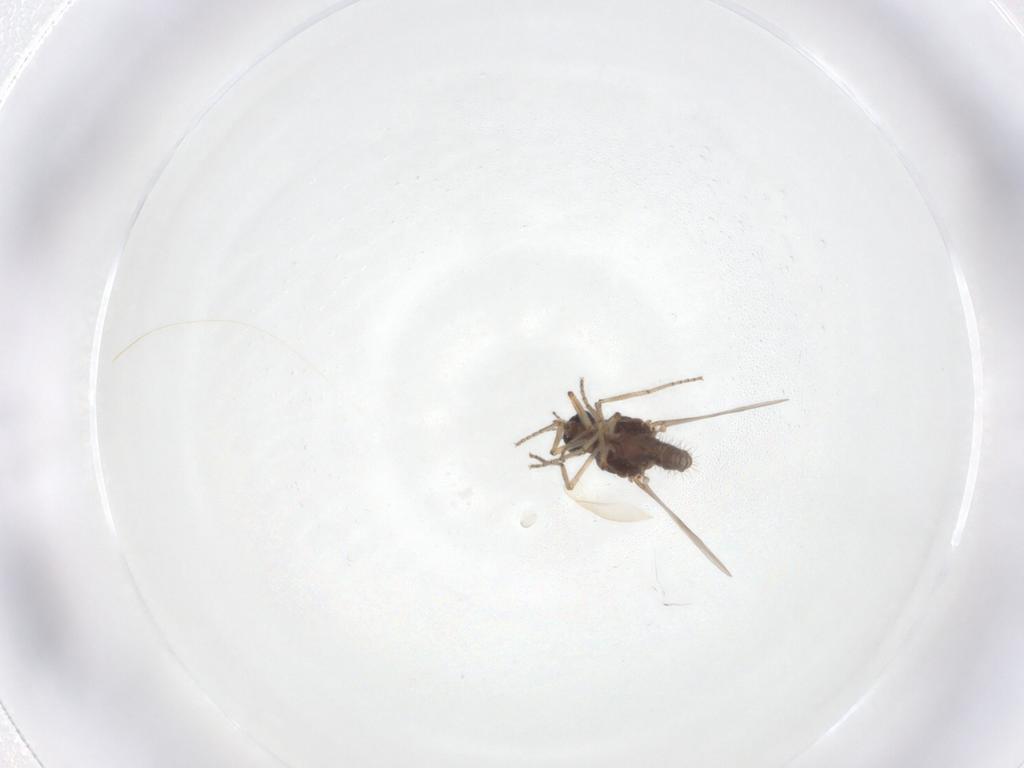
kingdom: Animalia
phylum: Arthropoda
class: Insecta
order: Diptera
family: Ceratopogonidae
